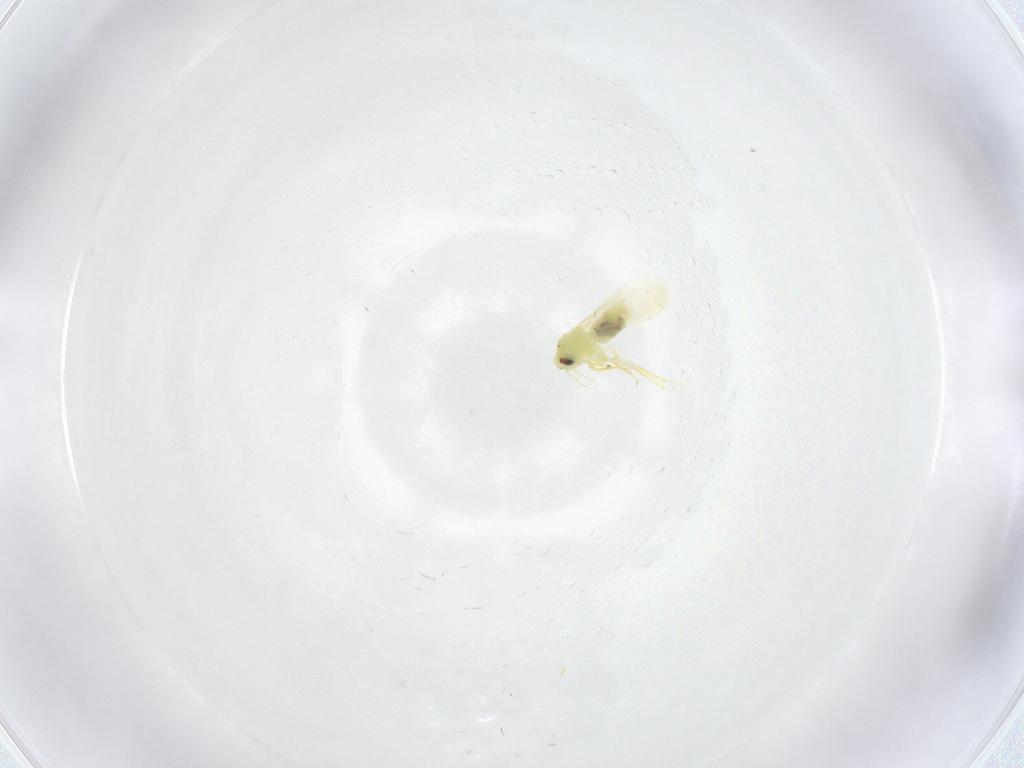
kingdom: Animalia
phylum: Arthropoda
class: Insecta
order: Hemiptera
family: Aleyrodidae
